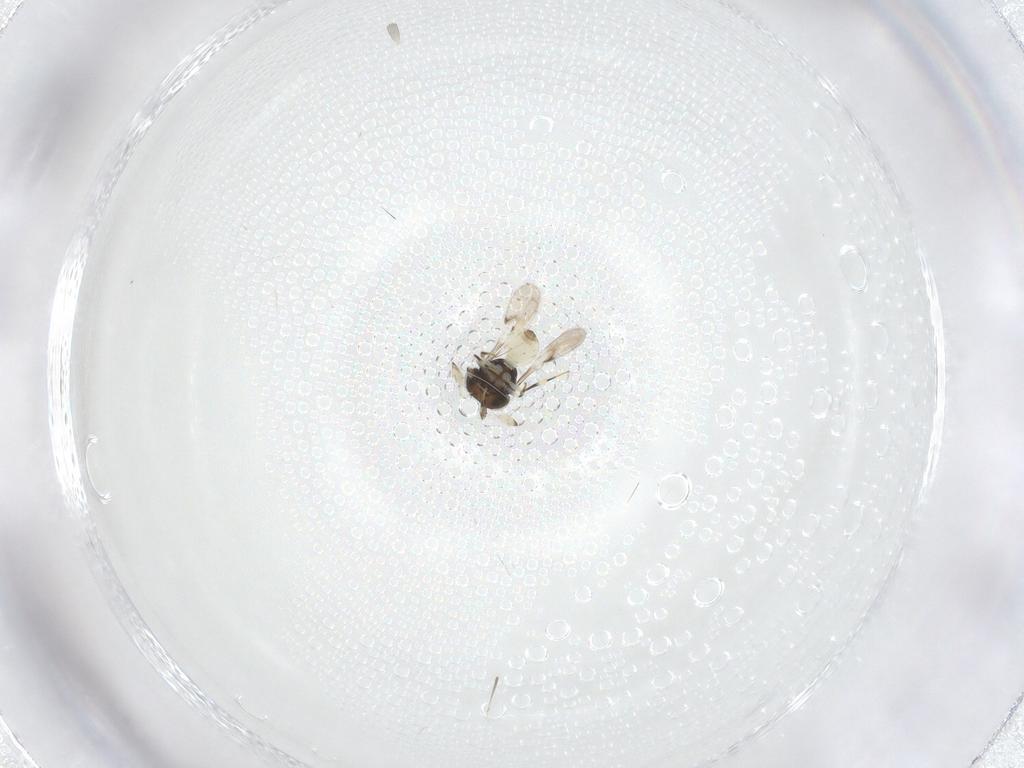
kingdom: Animalia
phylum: Arthropoda
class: Insecta
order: Hymenoptera
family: Scelionidae
